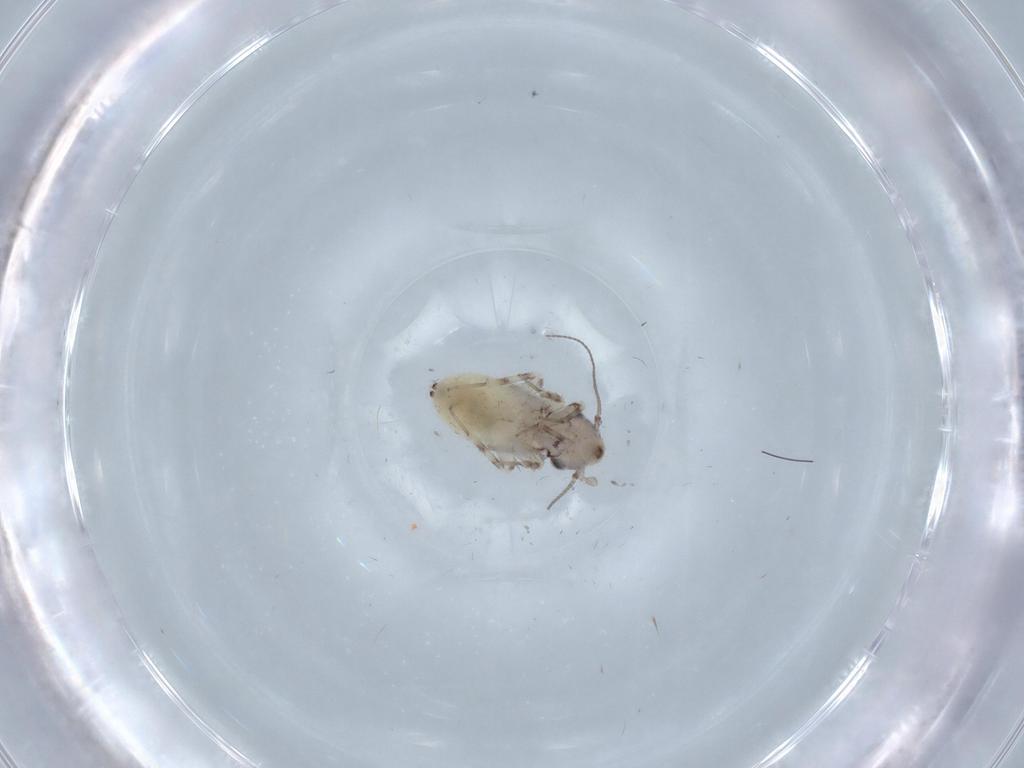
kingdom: Animalia
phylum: Arthropoda
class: Insecta
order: Psocodea
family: Lepidopsocidae
